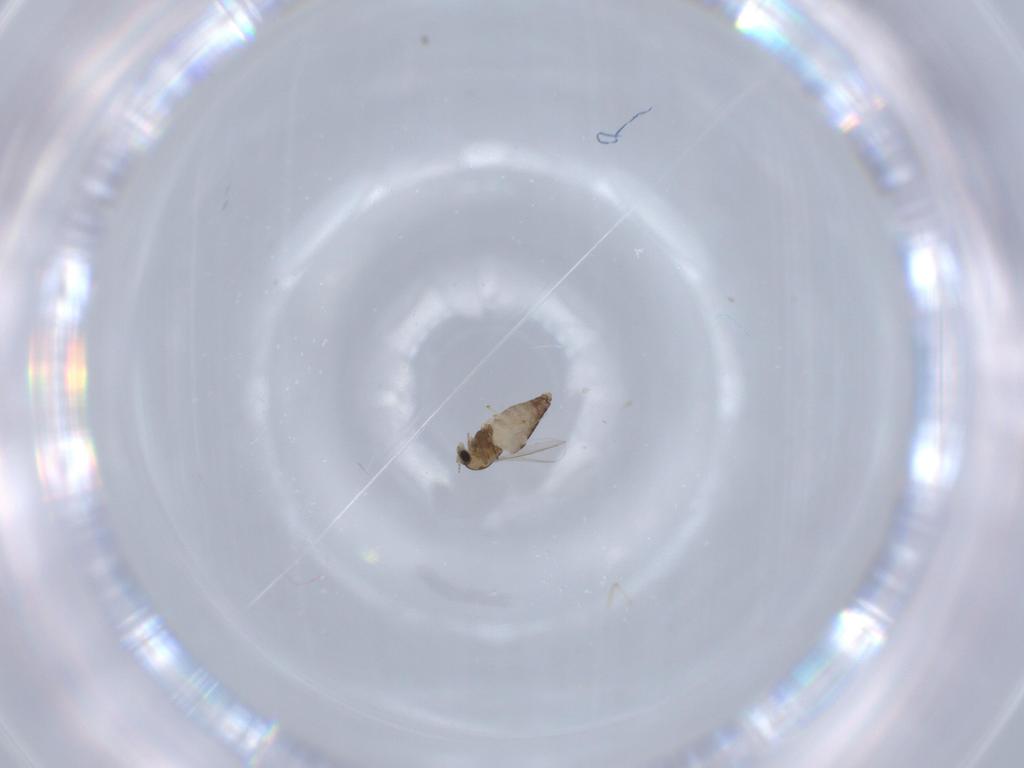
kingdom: Animalia
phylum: Arthropoda
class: Insecta
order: Diptera
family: Chironomidae
